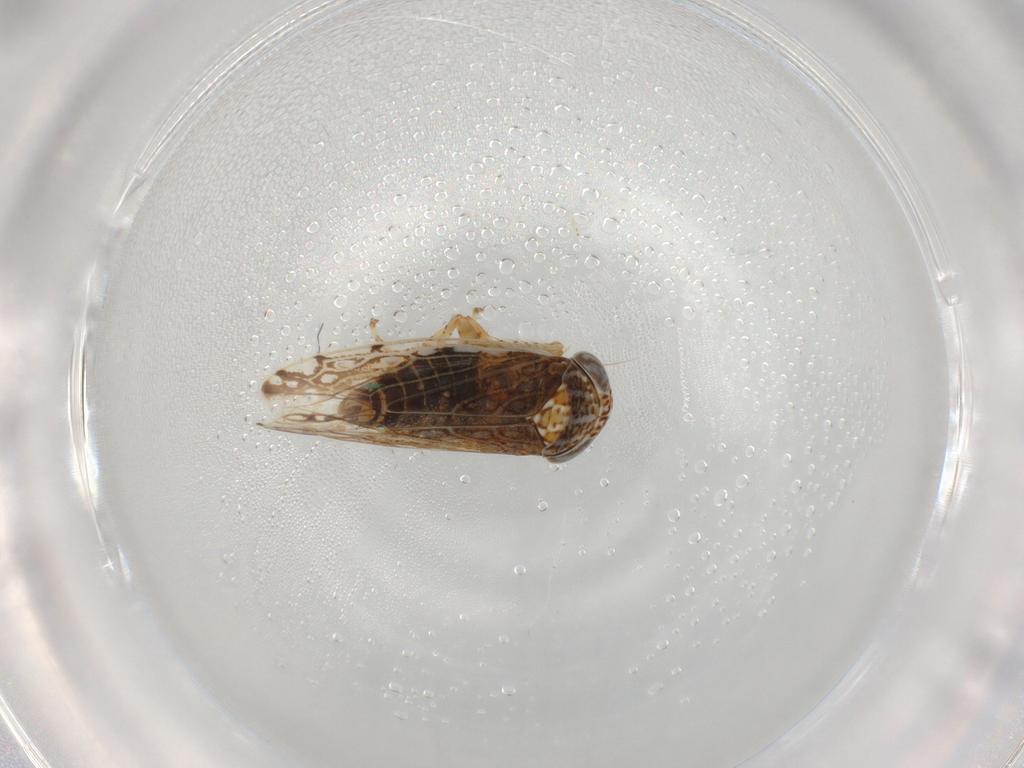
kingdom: Animalia
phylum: Arthropoda
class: Insecta
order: Hemiptera
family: Cicadellidae
